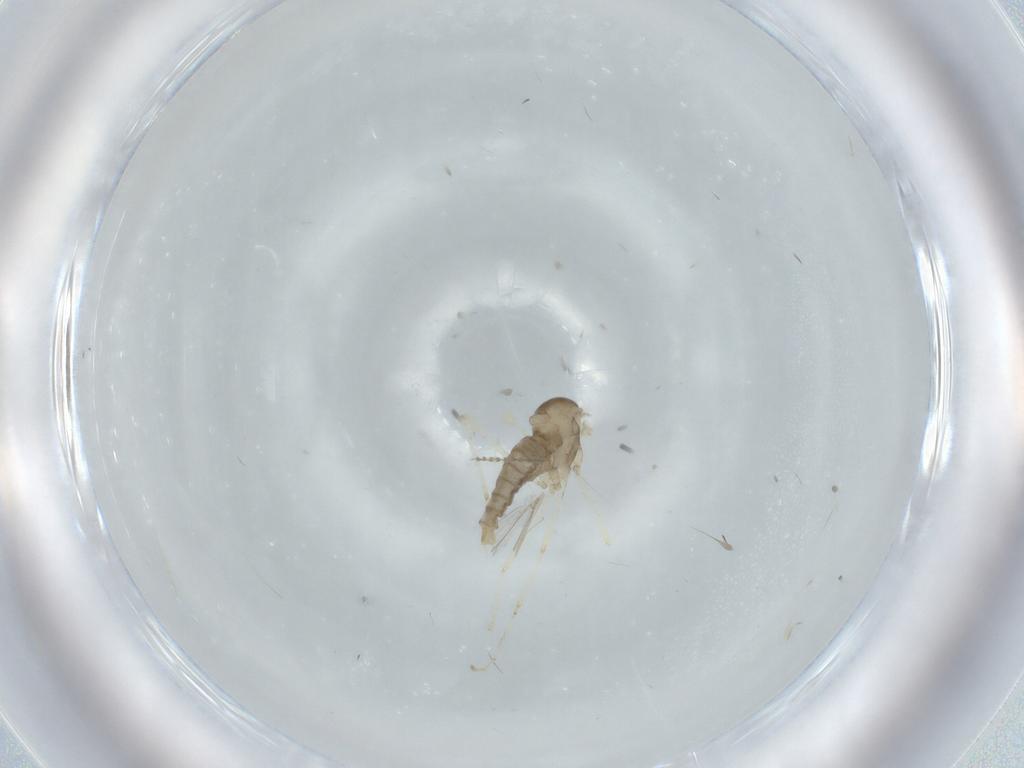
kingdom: Animalia
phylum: Arthropoda
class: Insecta
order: Diptera
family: Cecidomyiidae
